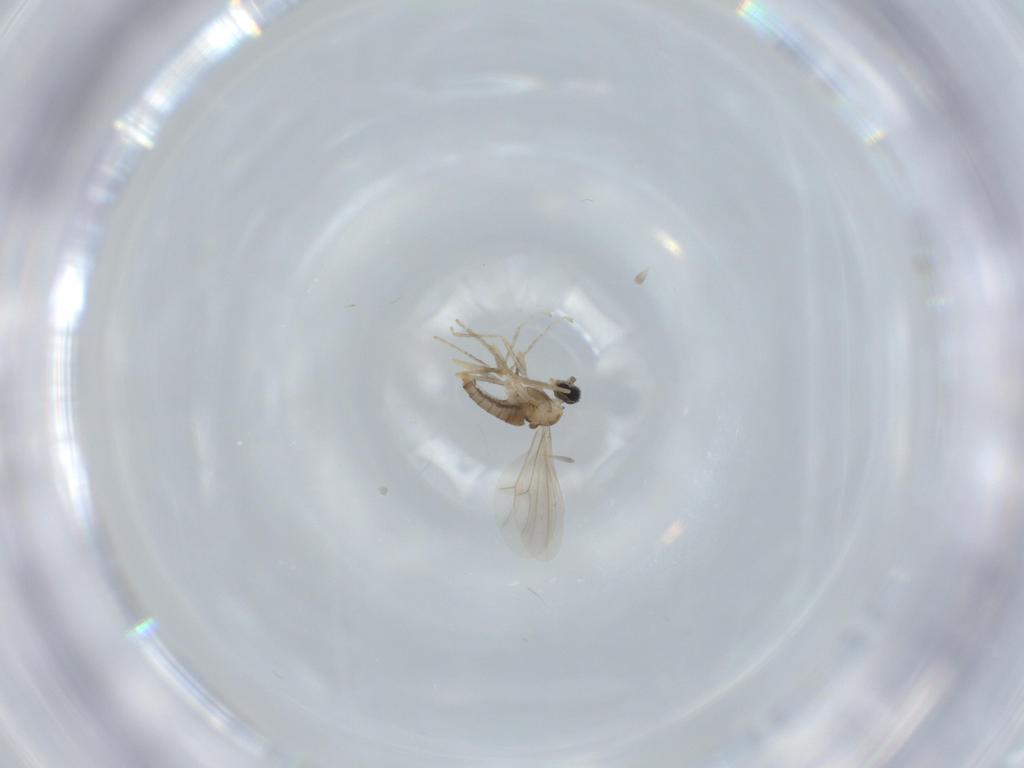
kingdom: Animalia
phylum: Arthropoda
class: Insecta
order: Diptera
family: Cecidomyiidae
